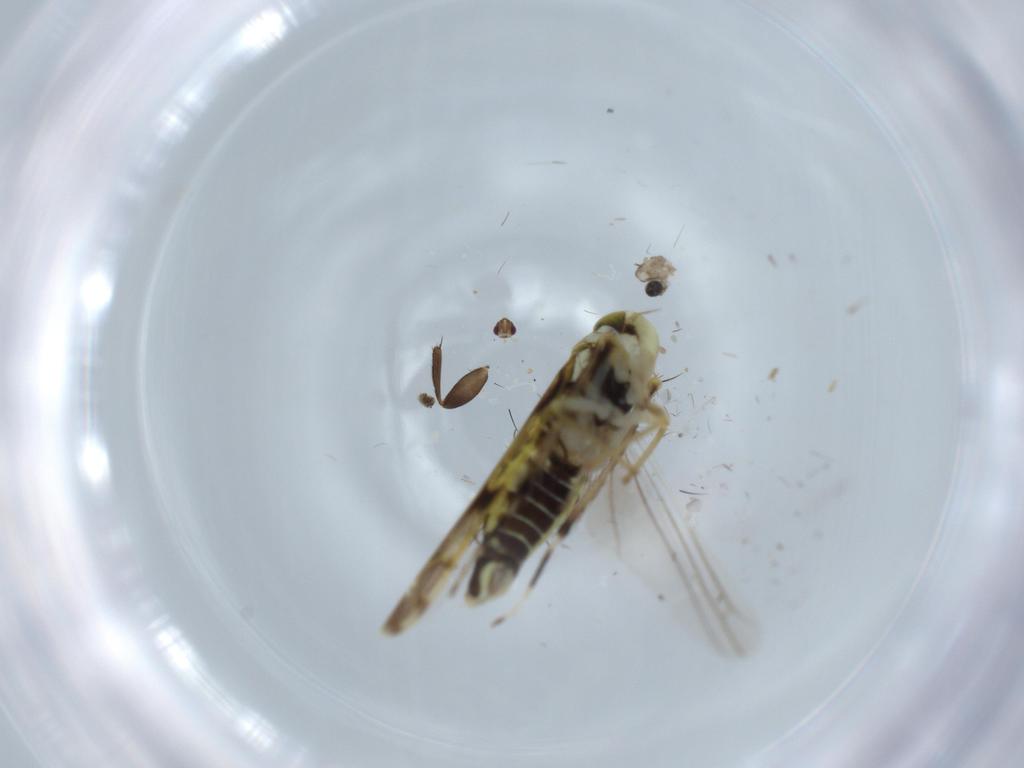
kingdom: Animalia
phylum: Arthropoda
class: Insecta
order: Hemiptera
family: Cicadellidae
